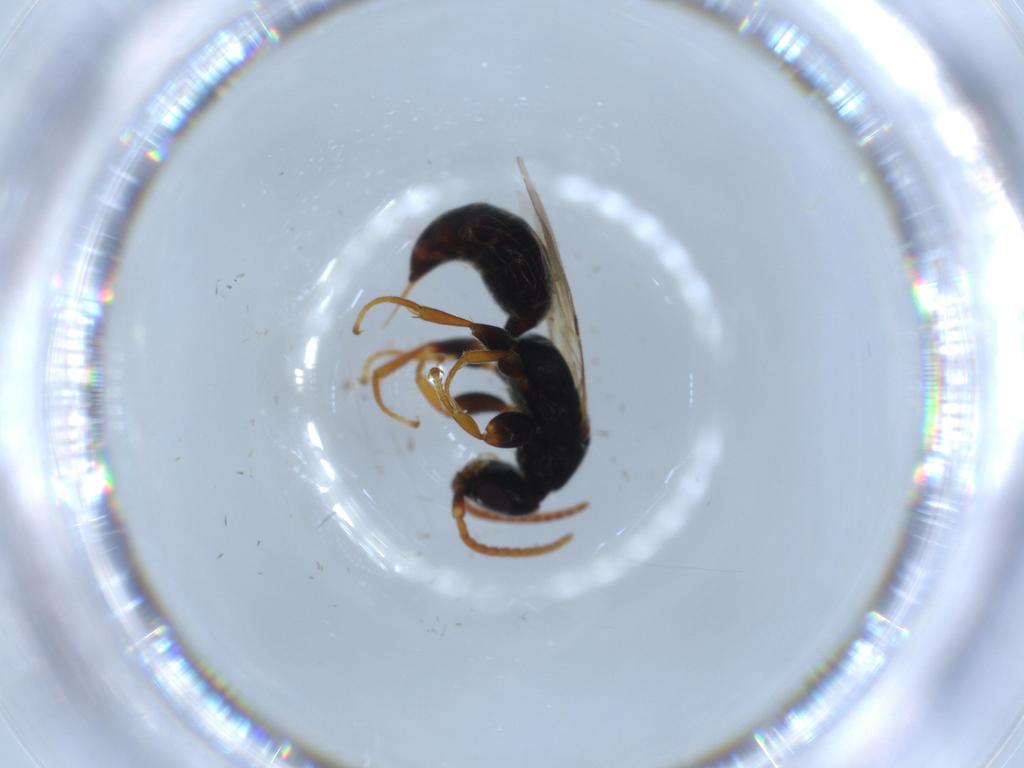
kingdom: Animalia
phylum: Arthropoda
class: Insecta
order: Hymenoptera
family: Bethylidae
